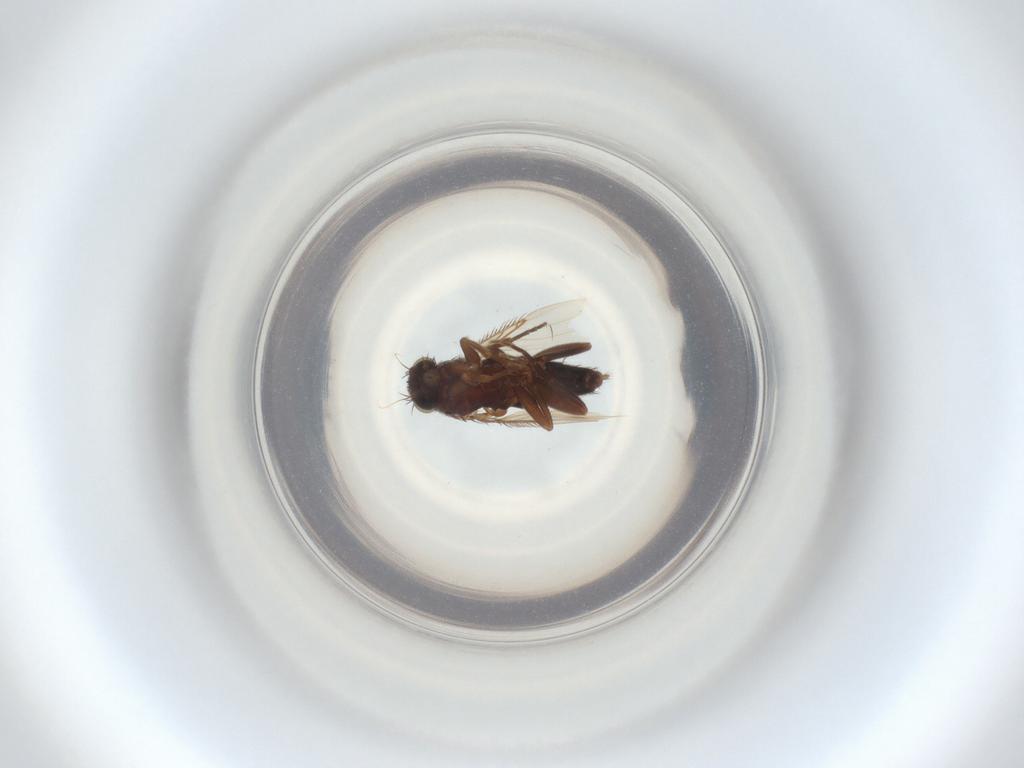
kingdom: Animalia
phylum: Arthropoda
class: Insecta
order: Diptera
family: Phoridae
